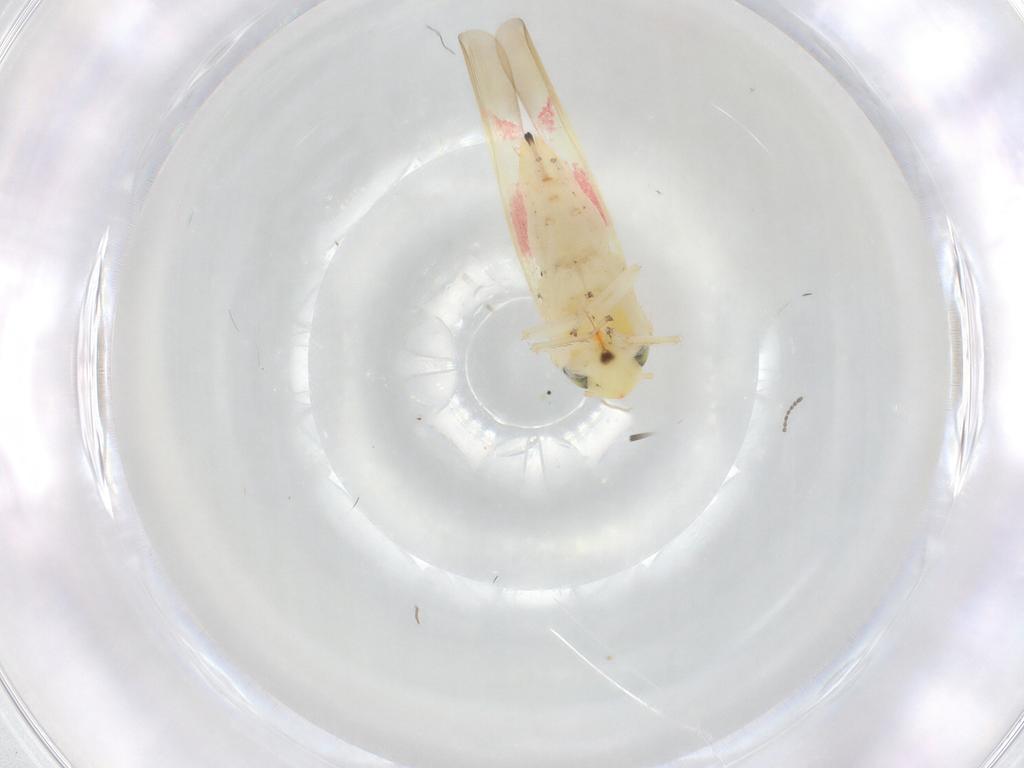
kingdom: Animalia
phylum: Arthropoda
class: Insecta
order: Hemiptera
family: Cicadellidae
